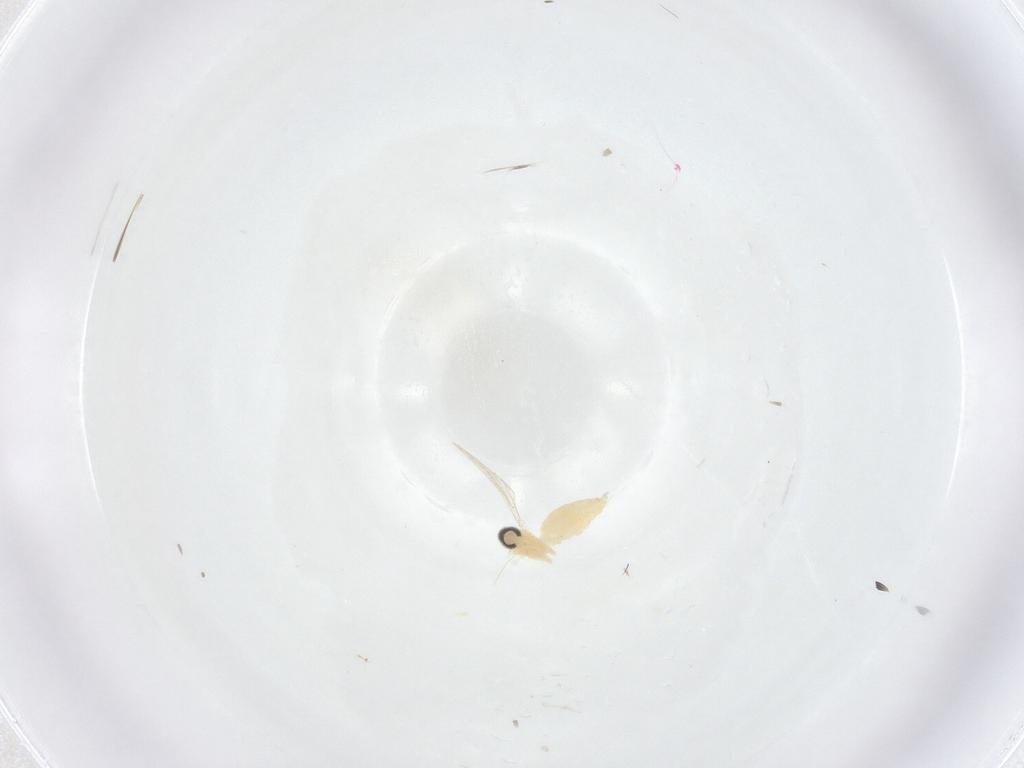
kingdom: Animalia
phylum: Arthropoda
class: Insecta
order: Diptera
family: Cecidomyiidae
